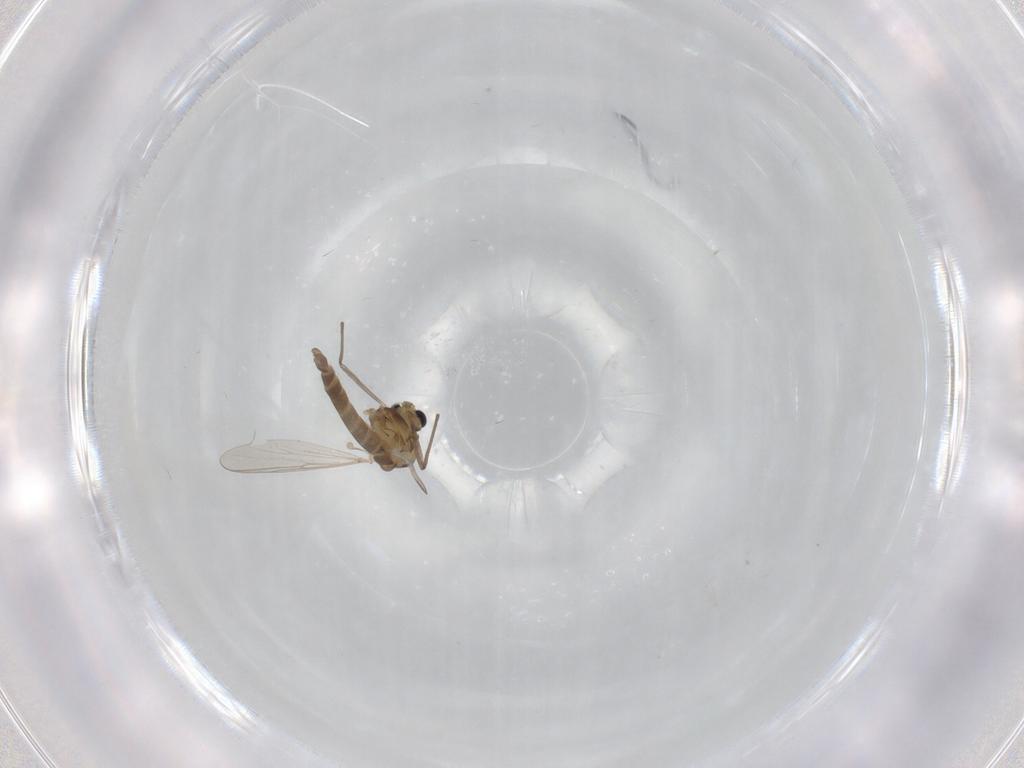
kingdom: Animalia
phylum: Arthropoda
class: Insecta
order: Diptera
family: Chironomidae
